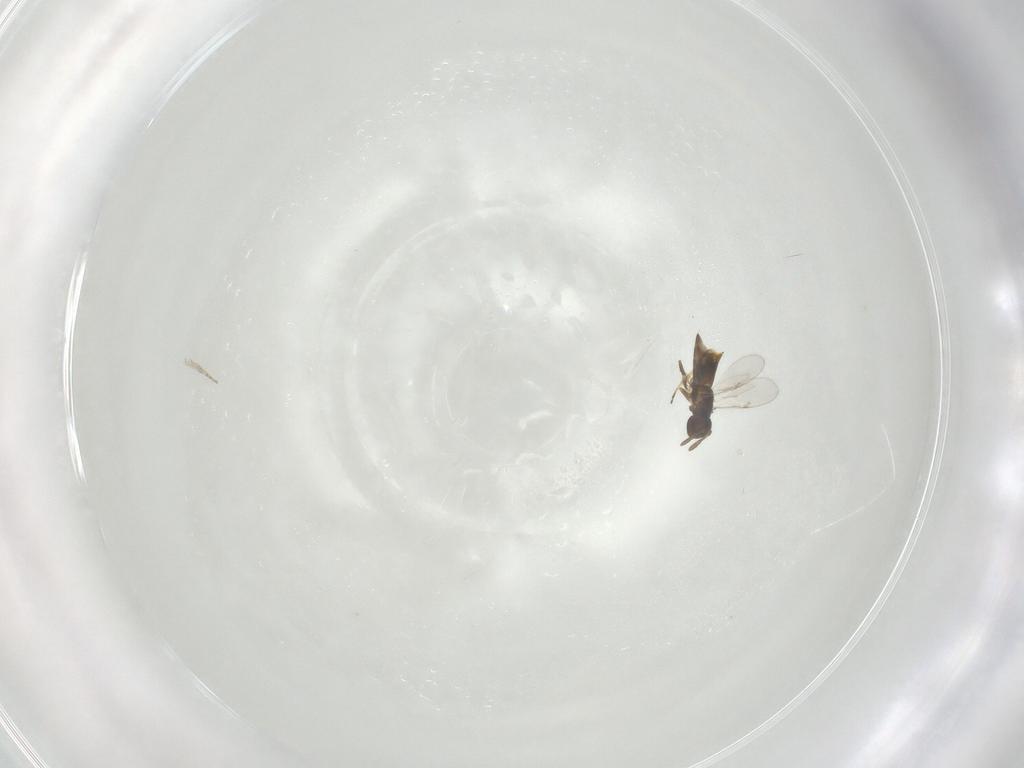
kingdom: Animalia
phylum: Arthropoda
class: Insecta
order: Hymenoptera
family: Encyrtidae
